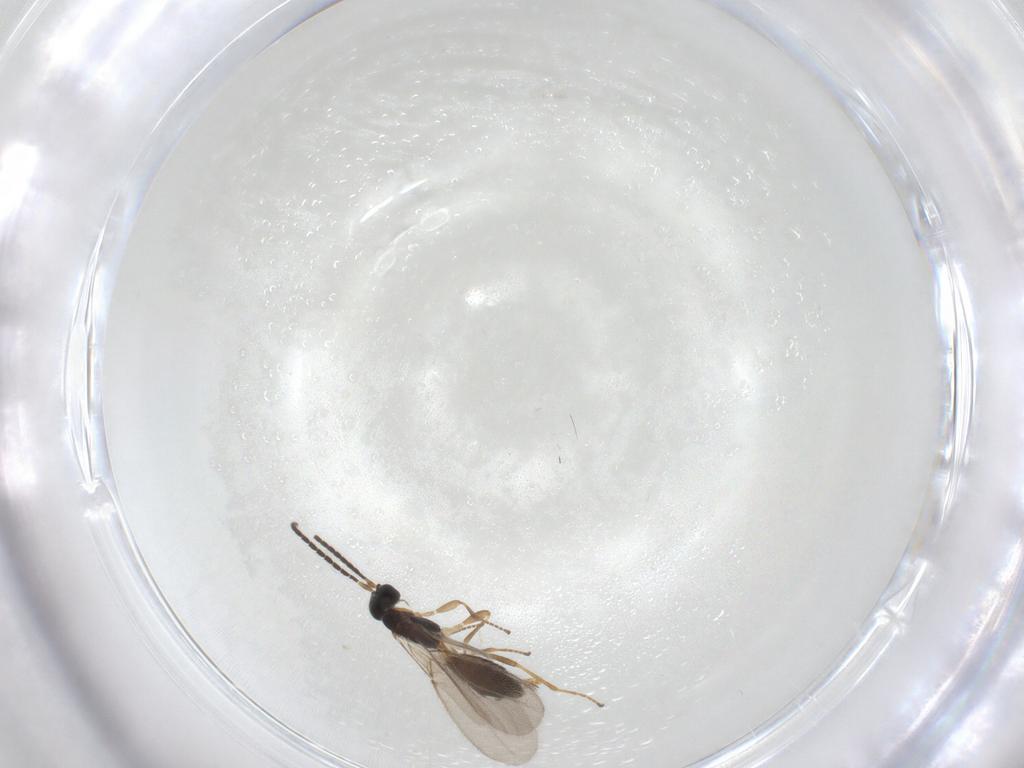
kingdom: Animalia
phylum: Arthropoda
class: Insecta
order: Hymenoptera
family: Braconidae
